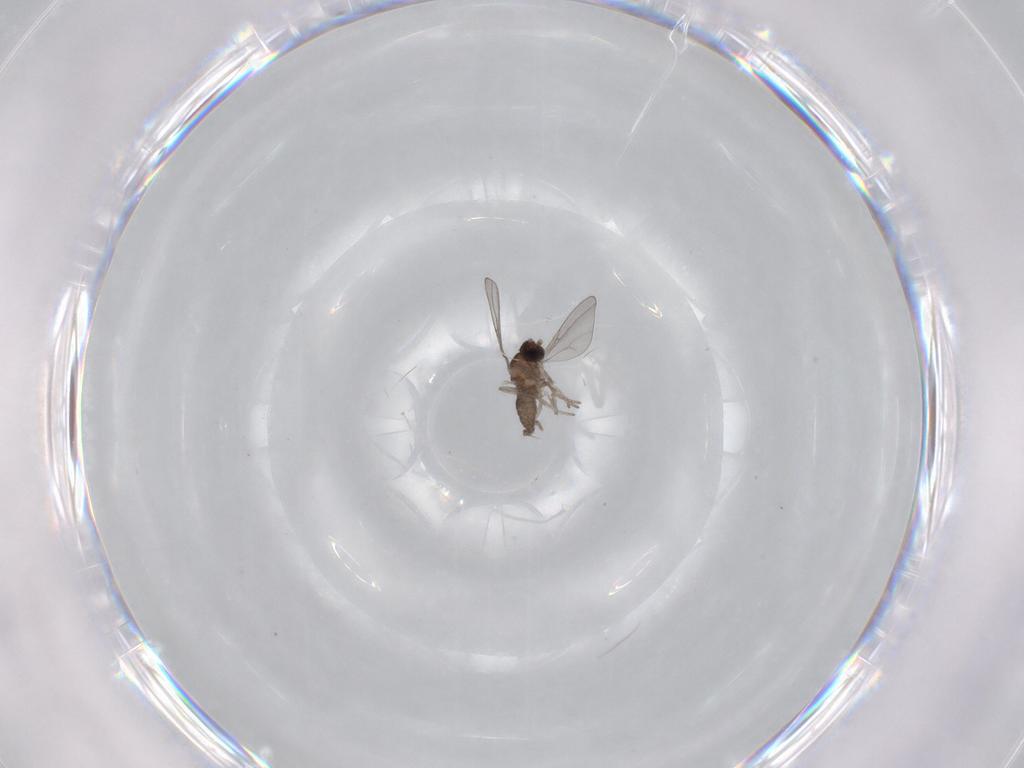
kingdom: Animalia
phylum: Arthropoda
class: Insecta
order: Diptera
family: Cecidomyiidae
